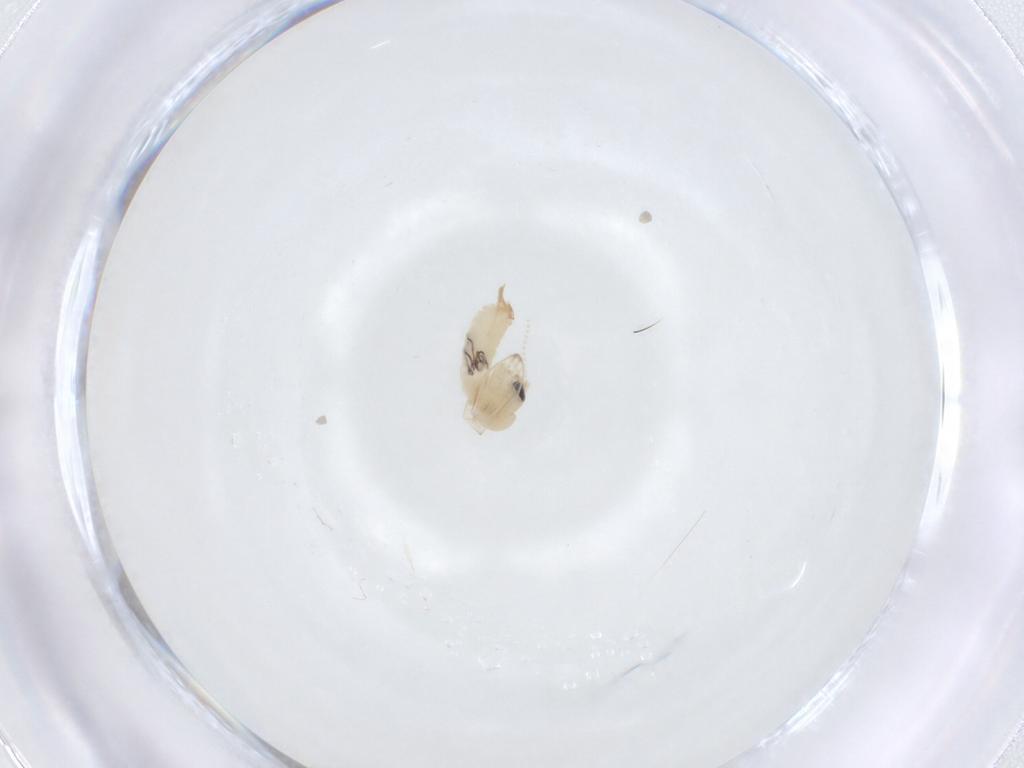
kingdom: Animalia
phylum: Arthropoda
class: Insecta
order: Diptera
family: Psychodidae
